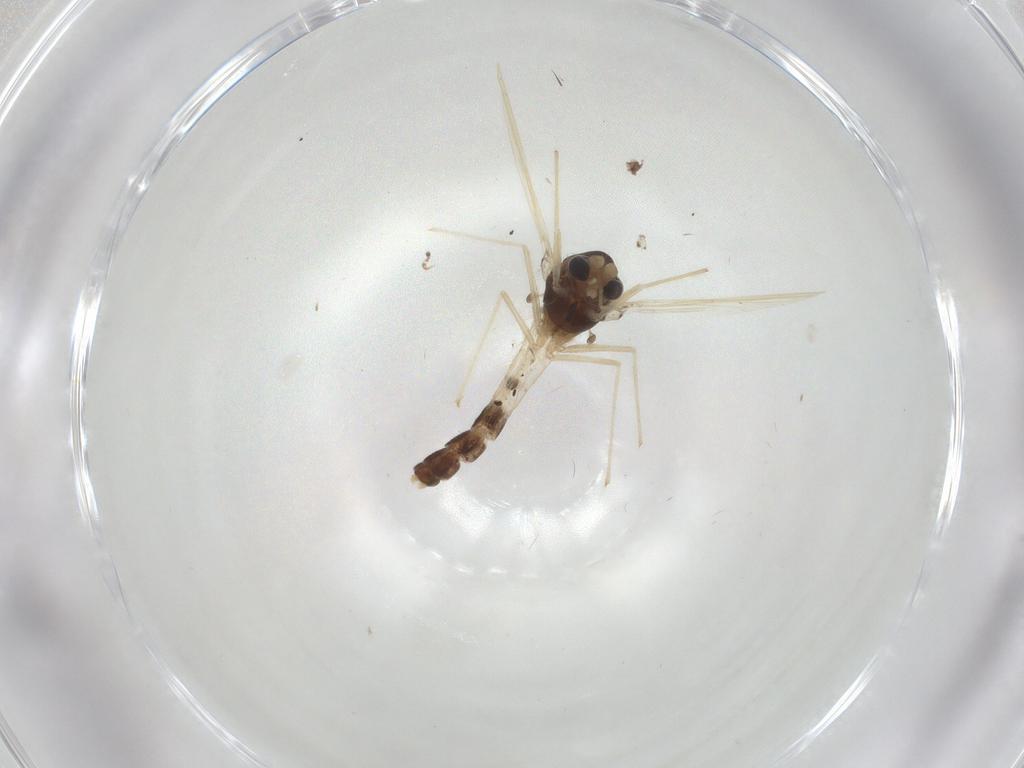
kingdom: Animalia
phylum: Arthropoda
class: Insecta
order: Diptera
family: Chironomidae
